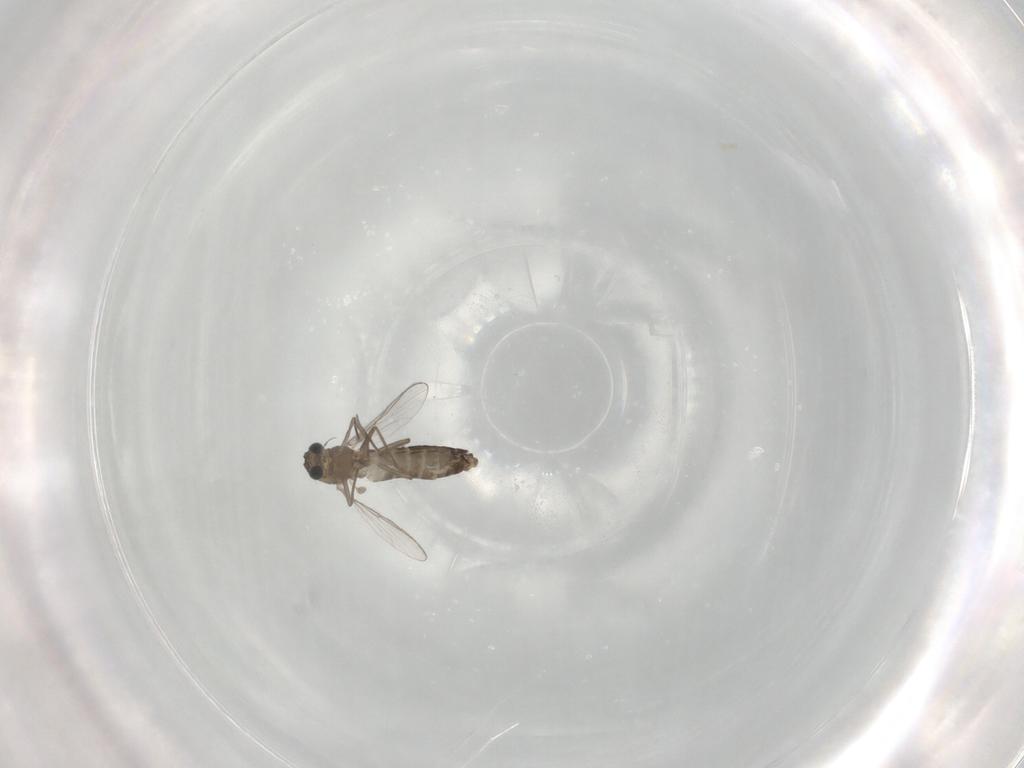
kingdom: Animalia
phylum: Arthropoda
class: Insecta
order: Diptera
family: Chironomidae
